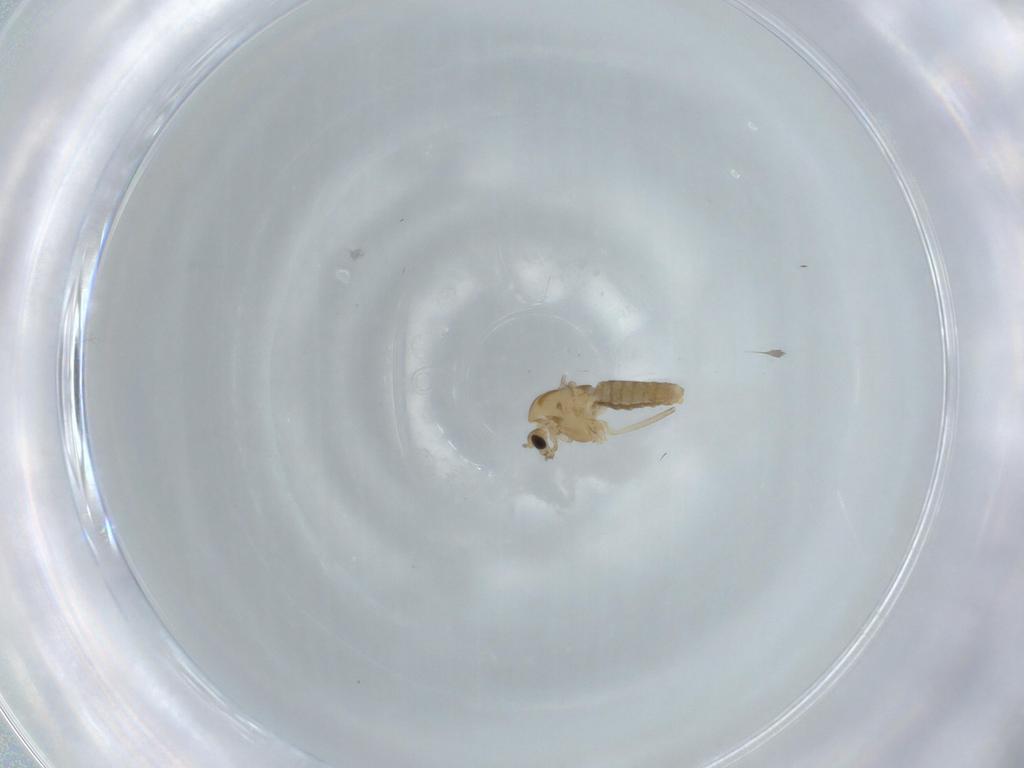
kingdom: Animalia
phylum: Arthropoda
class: Insecta
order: Diptera
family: Chironomidae
